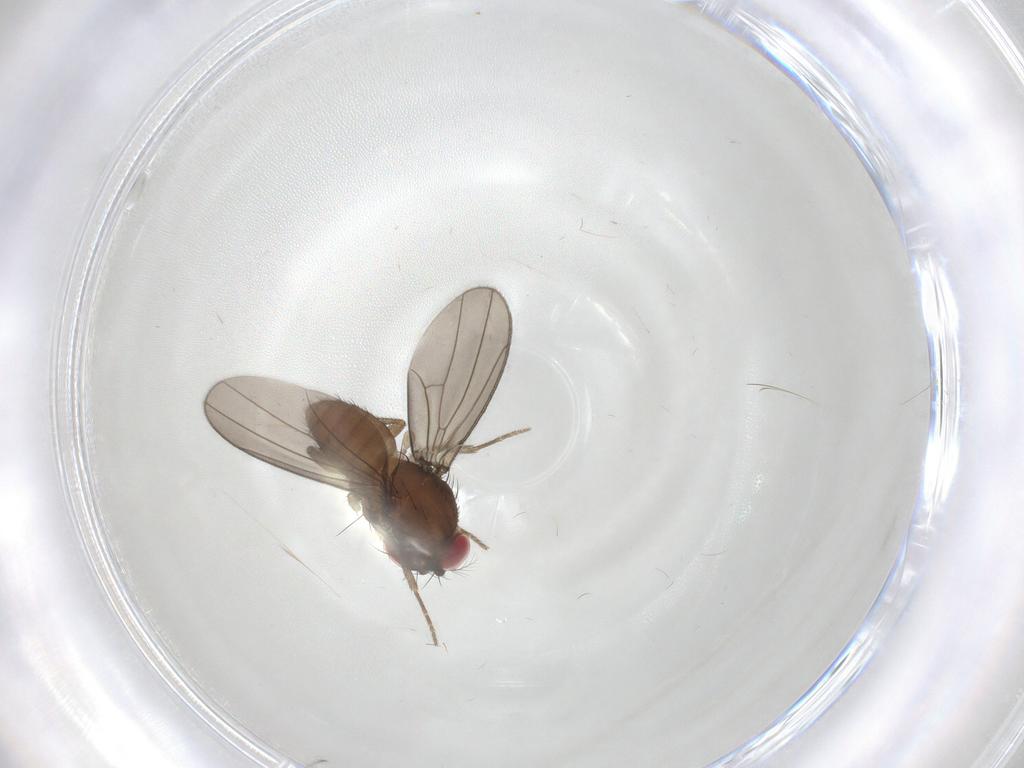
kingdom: Animalia
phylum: Arthropoda
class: Insecta
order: Diptera
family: Drosophilidae
